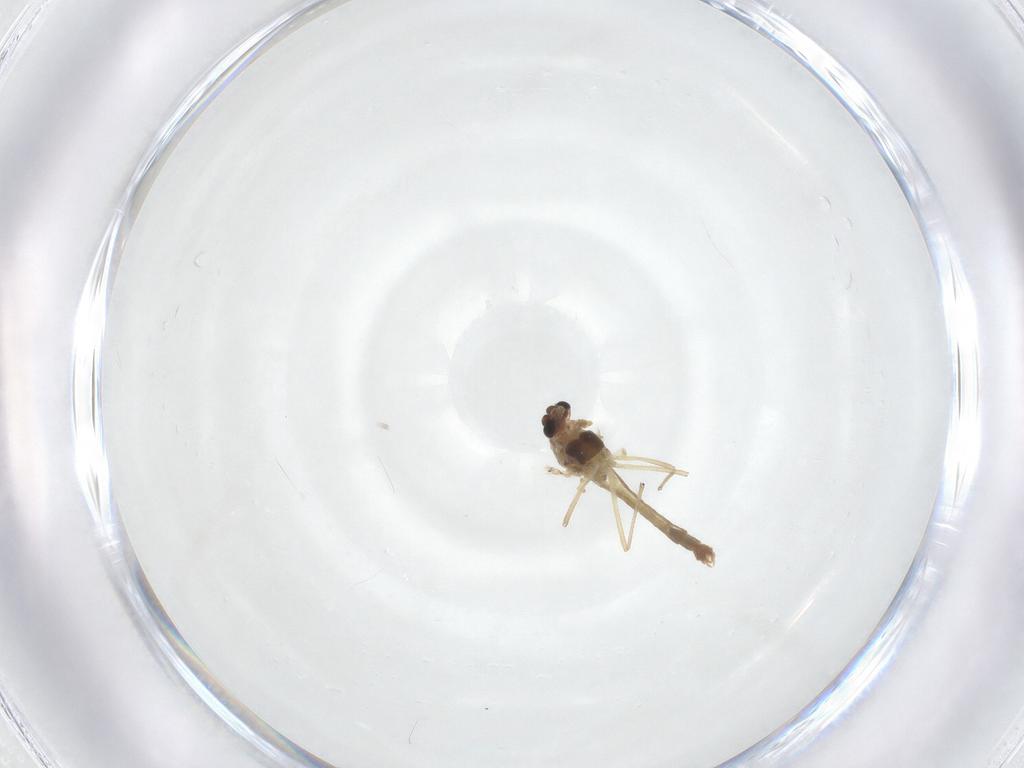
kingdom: Animalia
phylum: Arthropoda
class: Insecta
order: Diptera
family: Chironomidae
